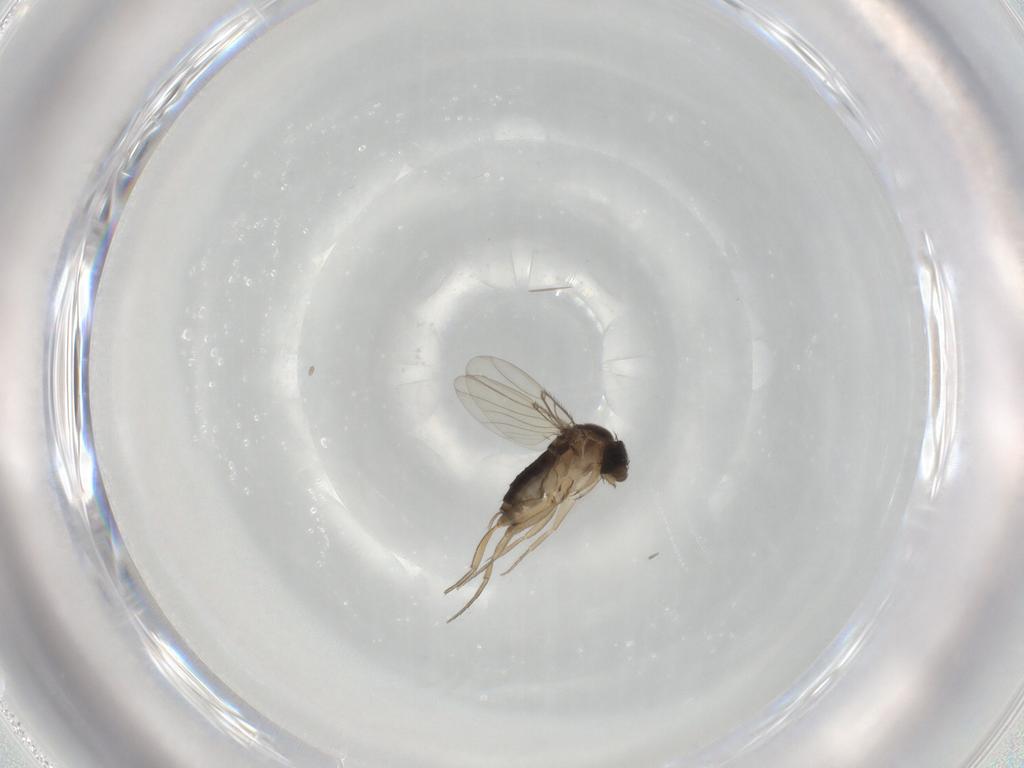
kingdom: Animalia
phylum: Arthropoda
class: Insecta
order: Diptera
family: Phoridae
